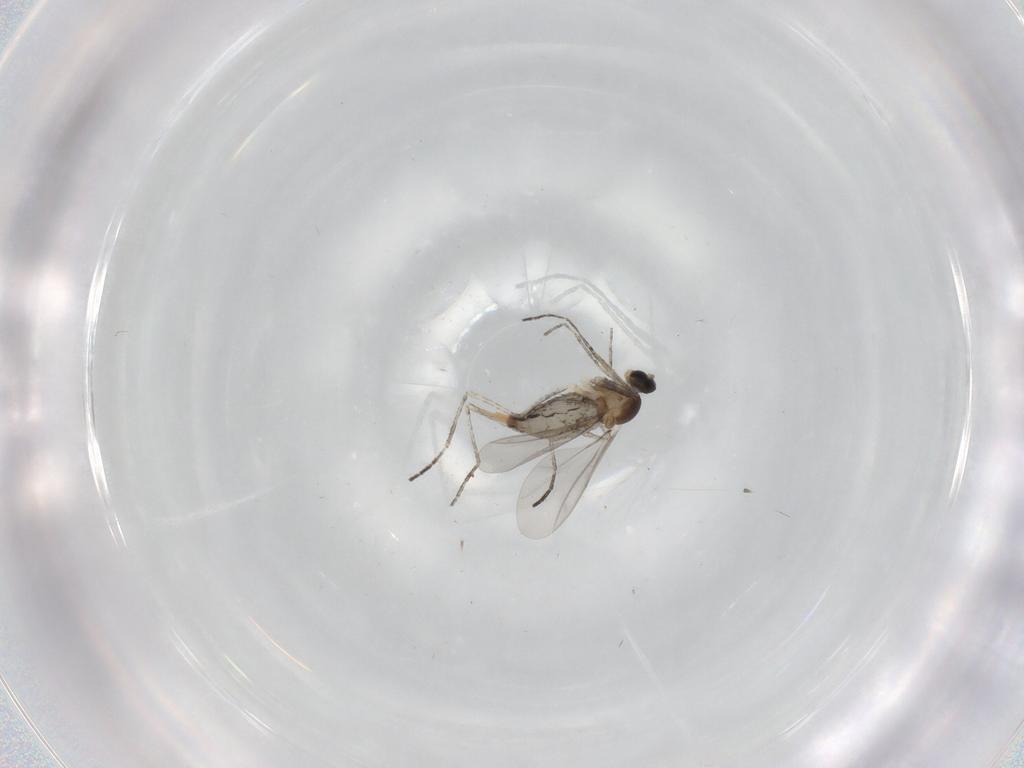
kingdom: Animalia
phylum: Arthropoda
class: Insecta
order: Diptera
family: Cecidomyiidae
